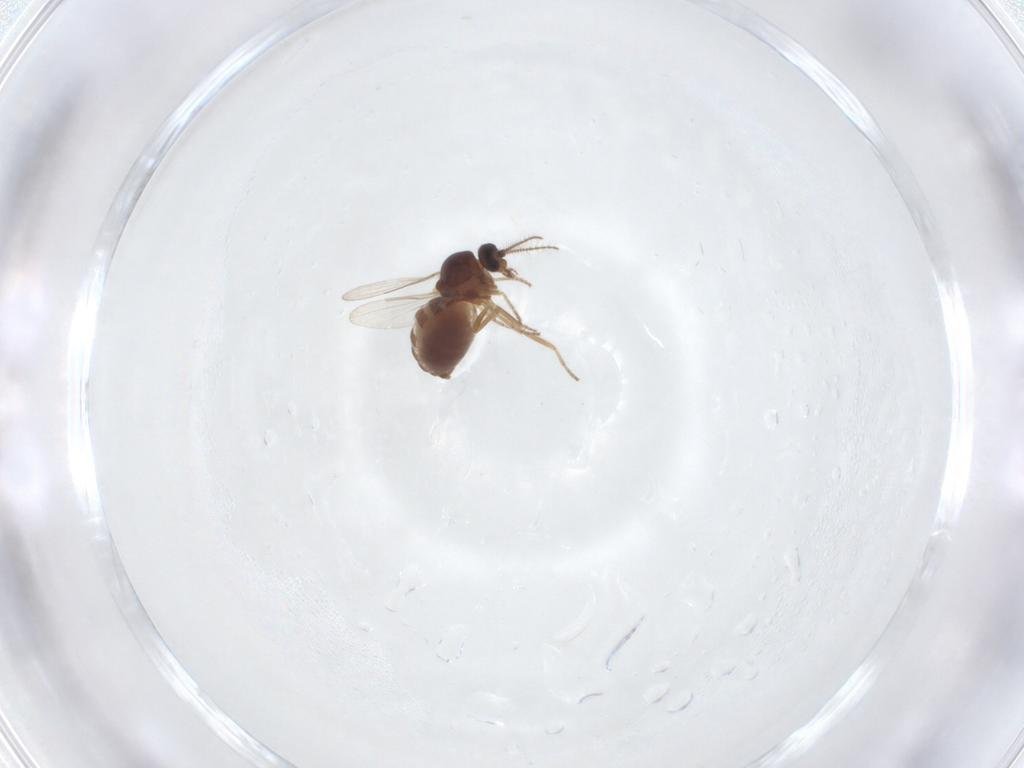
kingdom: Animalia
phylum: Arthropoda
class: Insecta
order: Diptera
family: Ceratopogonidae
